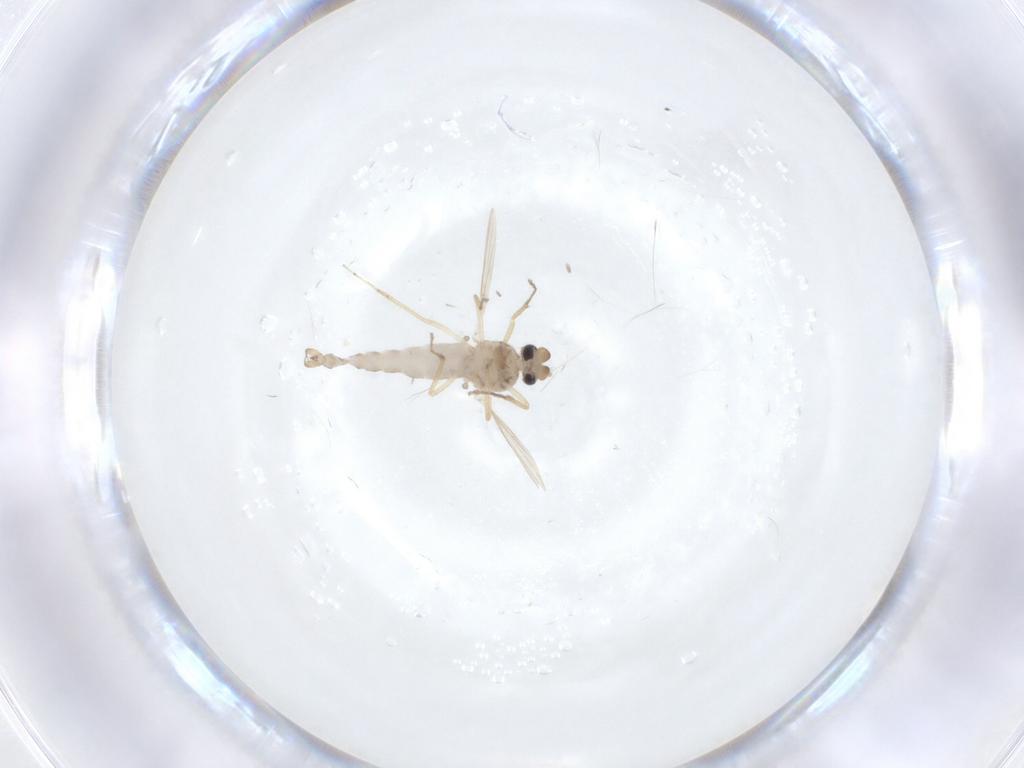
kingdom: Animalia
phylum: Arthropoda
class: Insecta
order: Diptera
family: Ceratopogonidae
